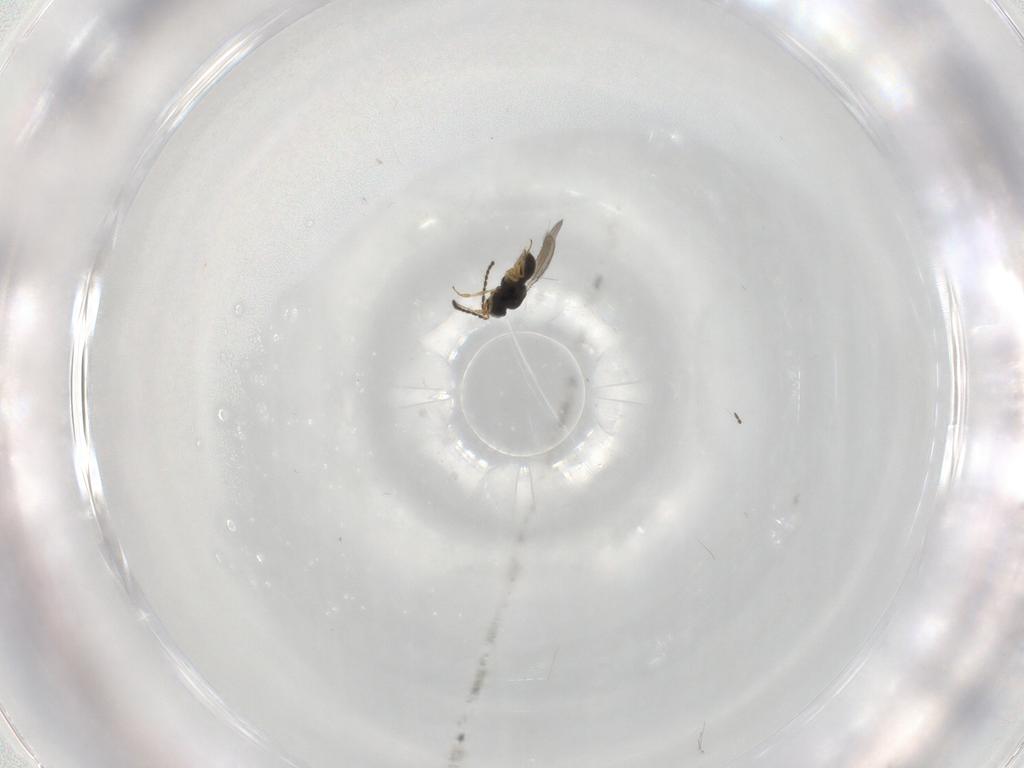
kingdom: Animalia
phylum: Arthropoda
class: Insecta
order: Hymenoptera
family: Scelionidae
